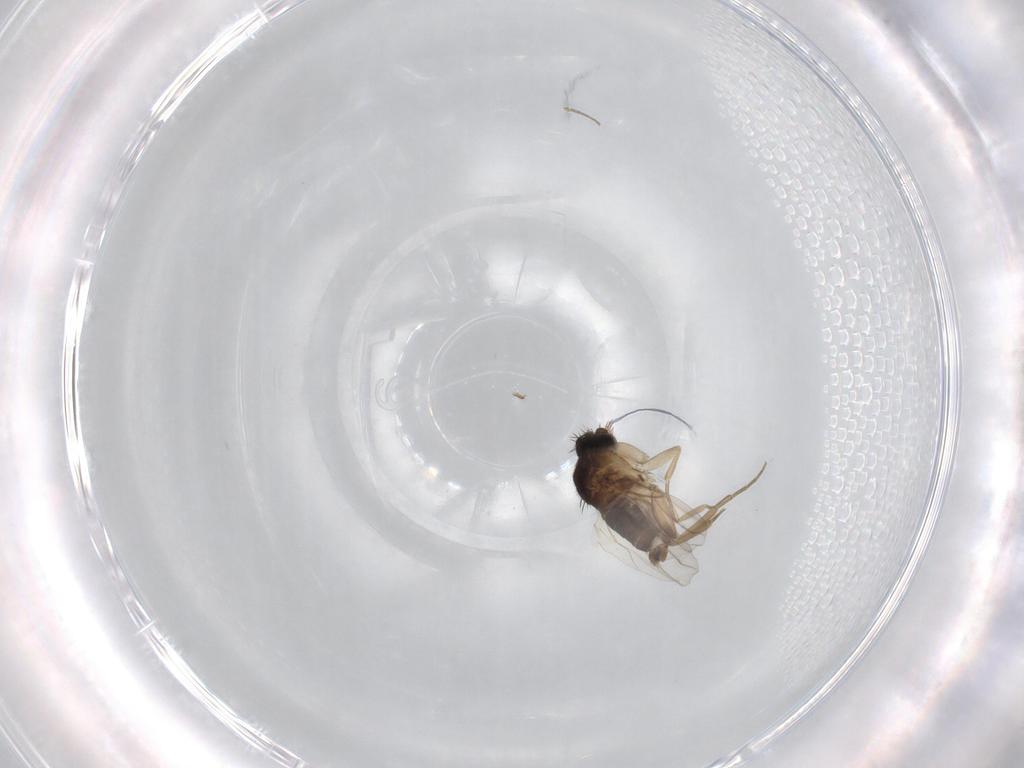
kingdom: Animalia
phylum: Arthropoda
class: Insecta
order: Diptera
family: Phoridae
